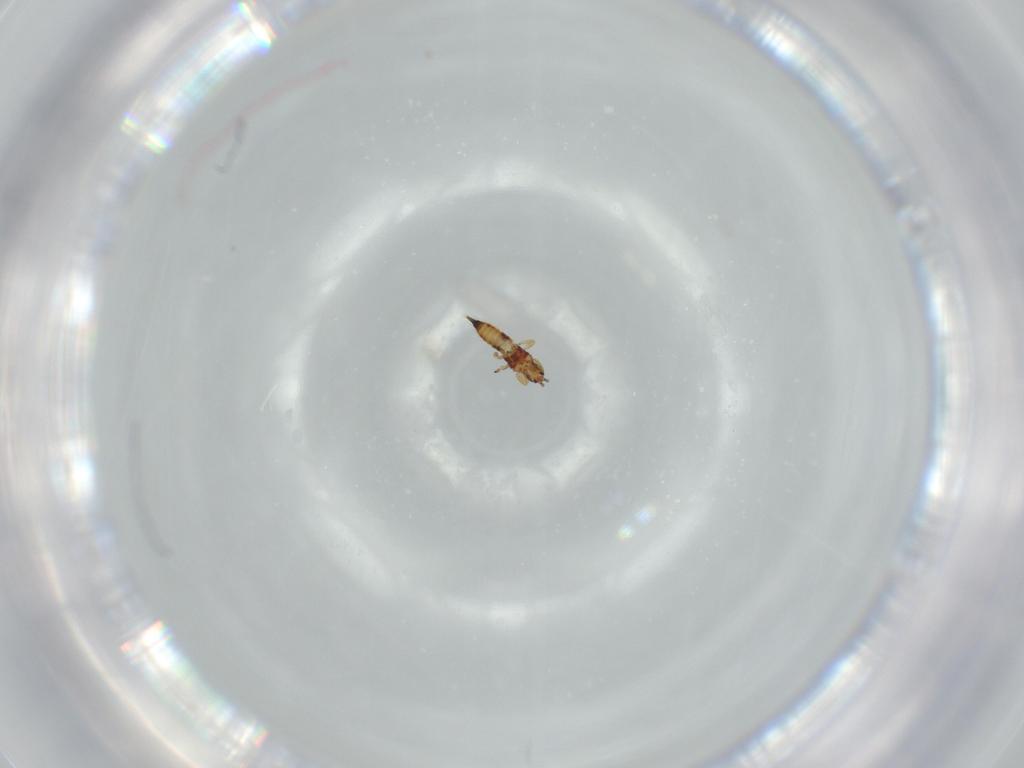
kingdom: Animalia
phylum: Arthropoda
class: Insecta
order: Thysanoptera
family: Phlaeothripidae
